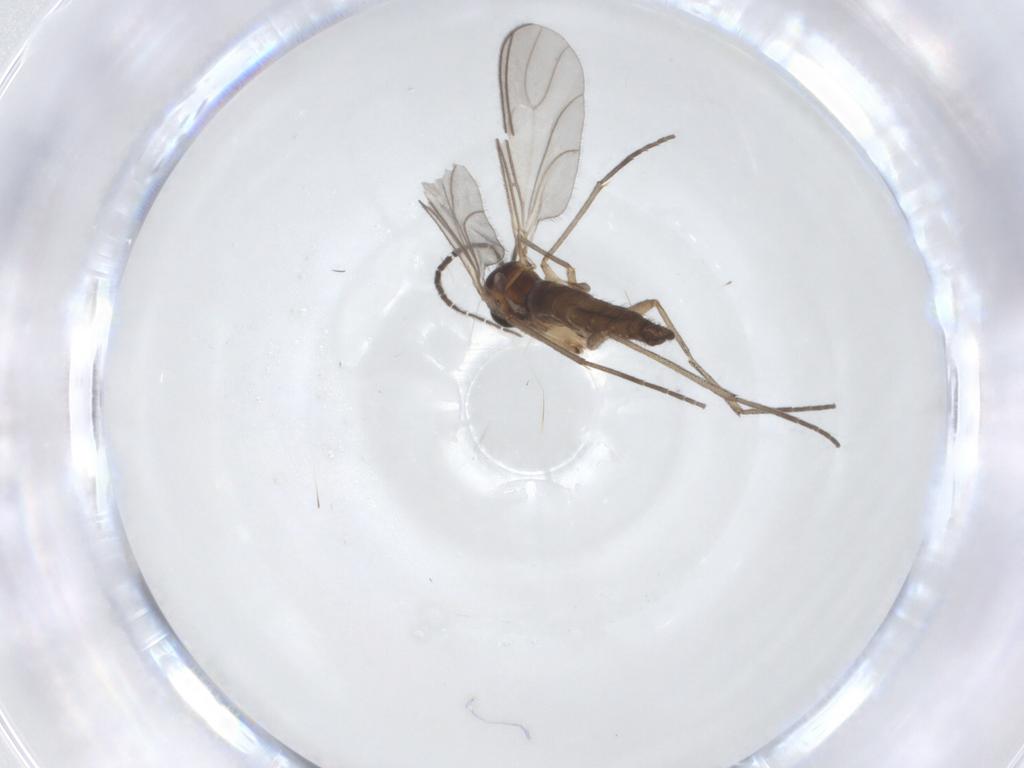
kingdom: Animalia
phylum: Arthropoda
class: Insecta
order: Diptera
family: Sciaridae
